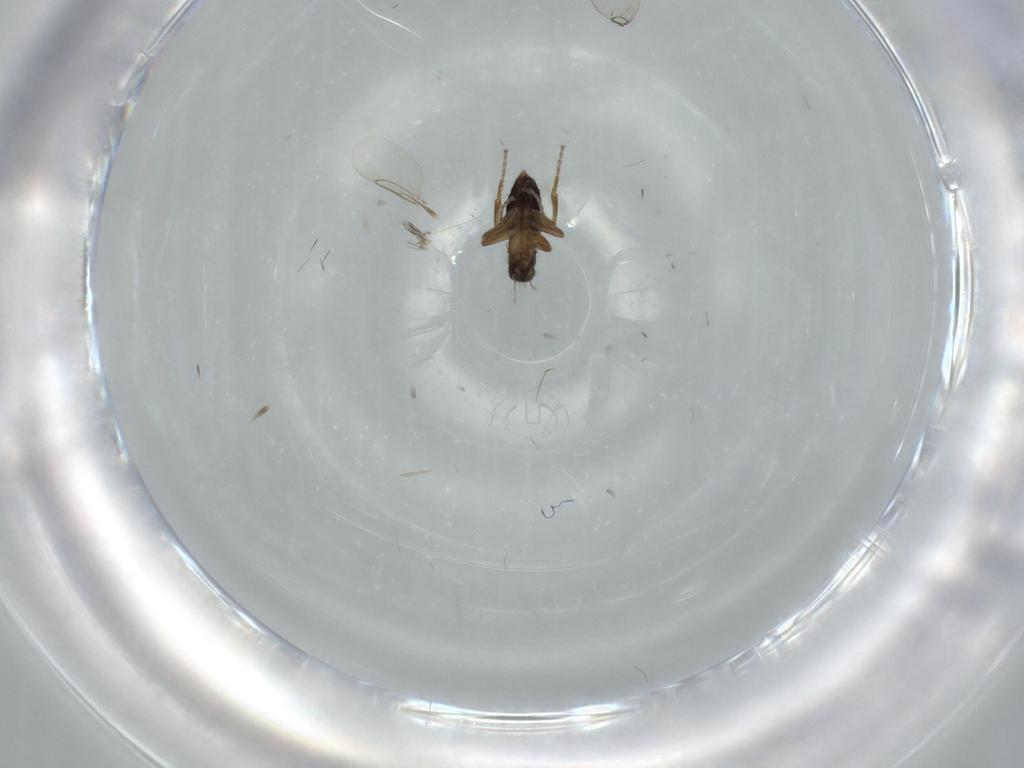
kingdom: Animalia
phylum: Arthropoda
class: Insecta
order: Diptera
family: Phoridae
